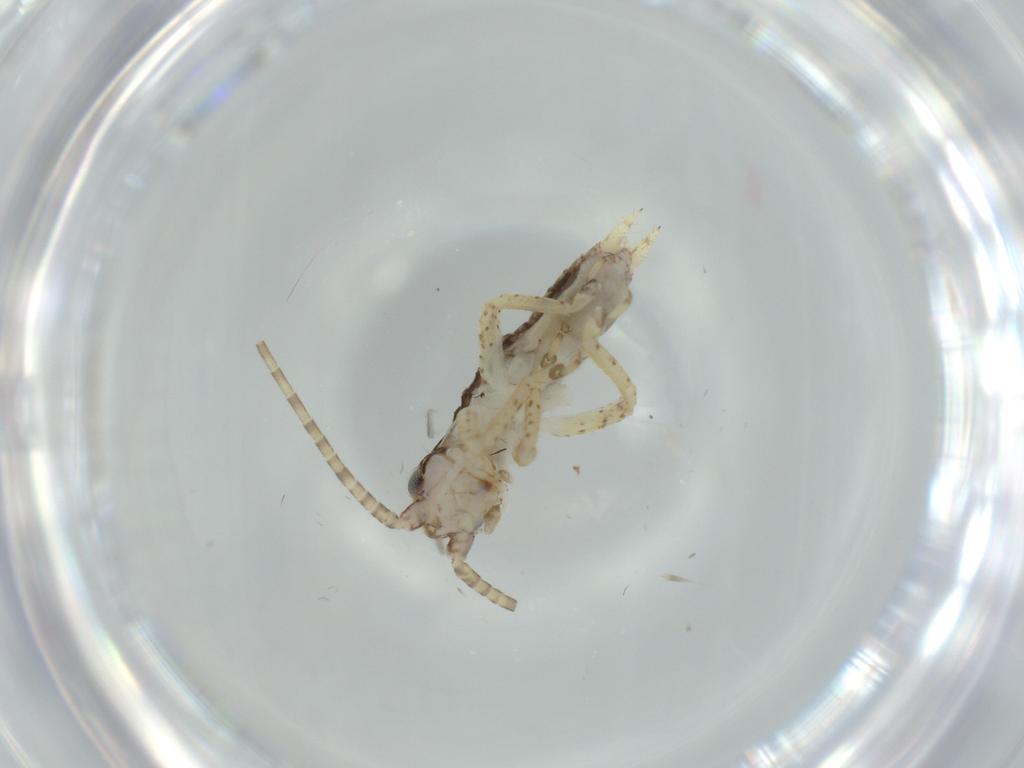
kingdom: Animalia
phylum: Arthropoda
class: Insecta
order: Orthoptera
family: Gryllidae
